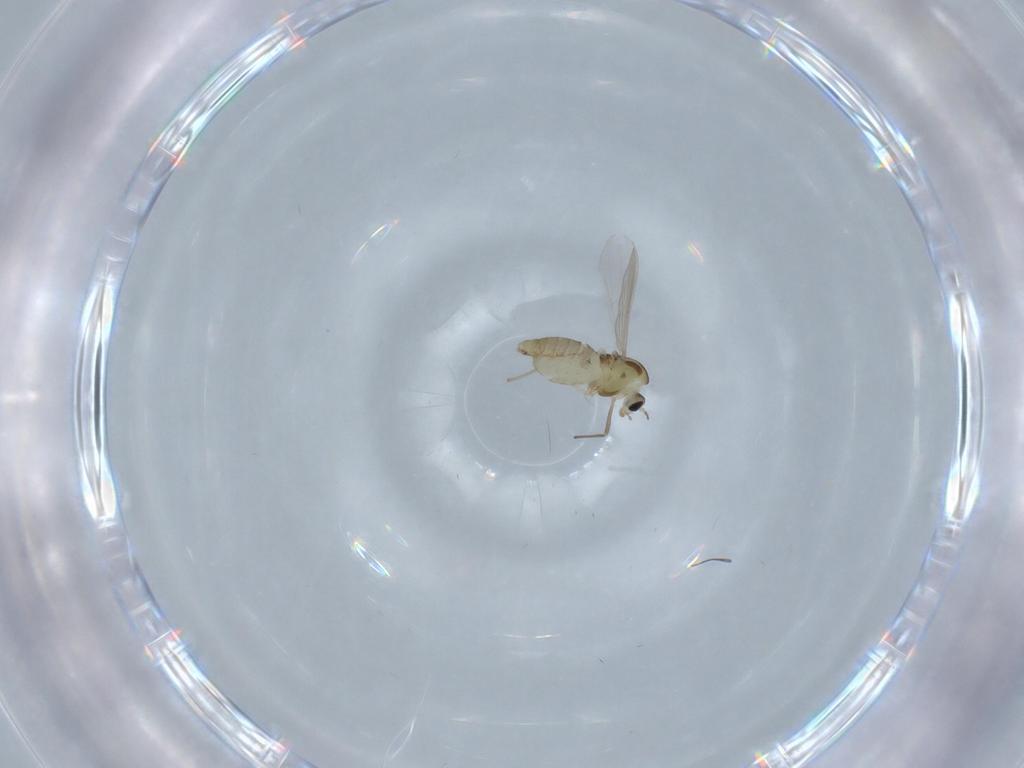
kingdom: Animalia
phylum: Arthropoda
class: Insecta
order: Diptera
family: Chironomidae
